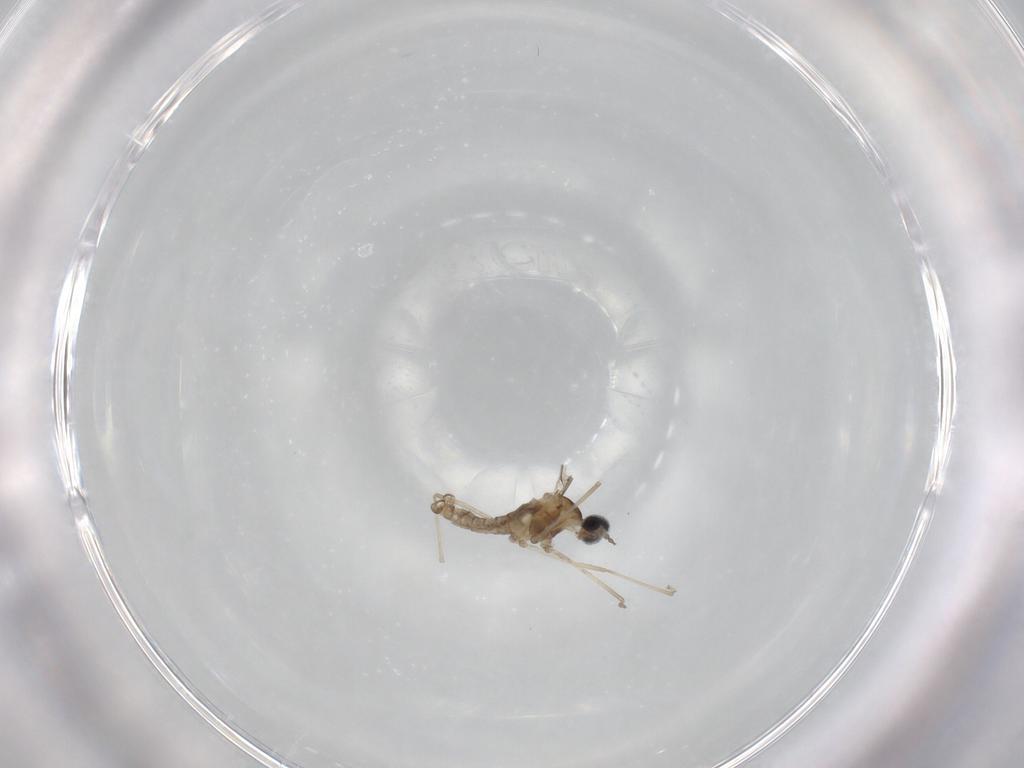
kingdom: Animalia
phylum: Arthropoda
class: Insecta
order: Diptera
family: Cecidomyiidae
